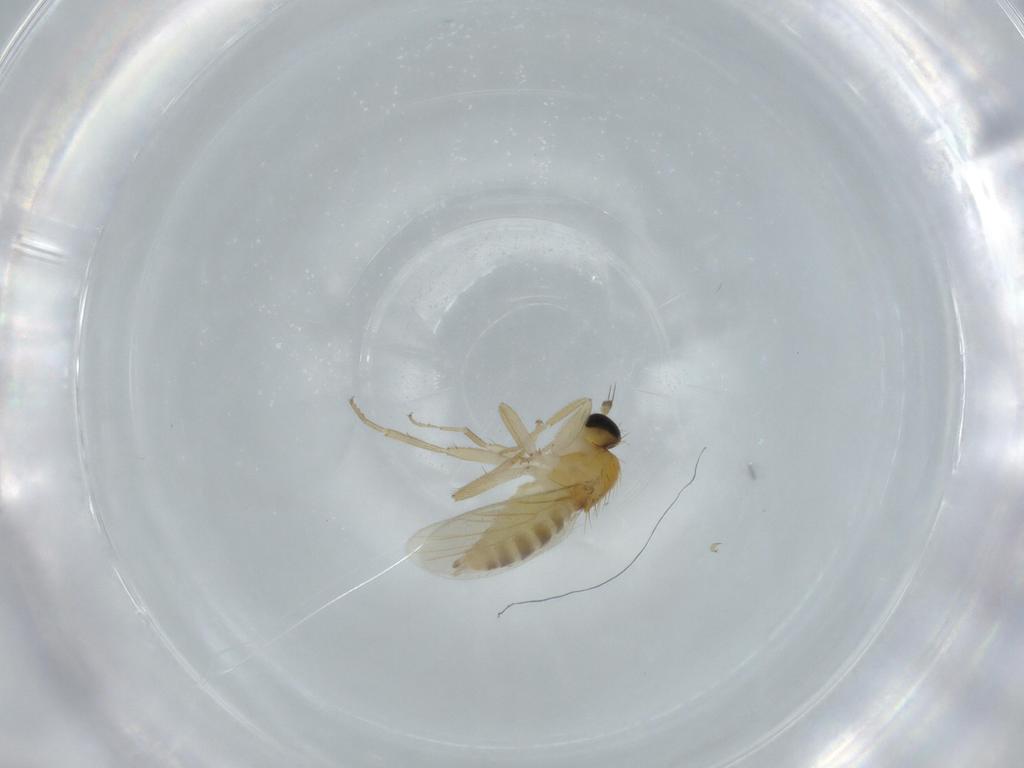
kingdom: Animalia
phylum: Arthropoda
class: Insecta
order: Diptera
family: Hybotidae
